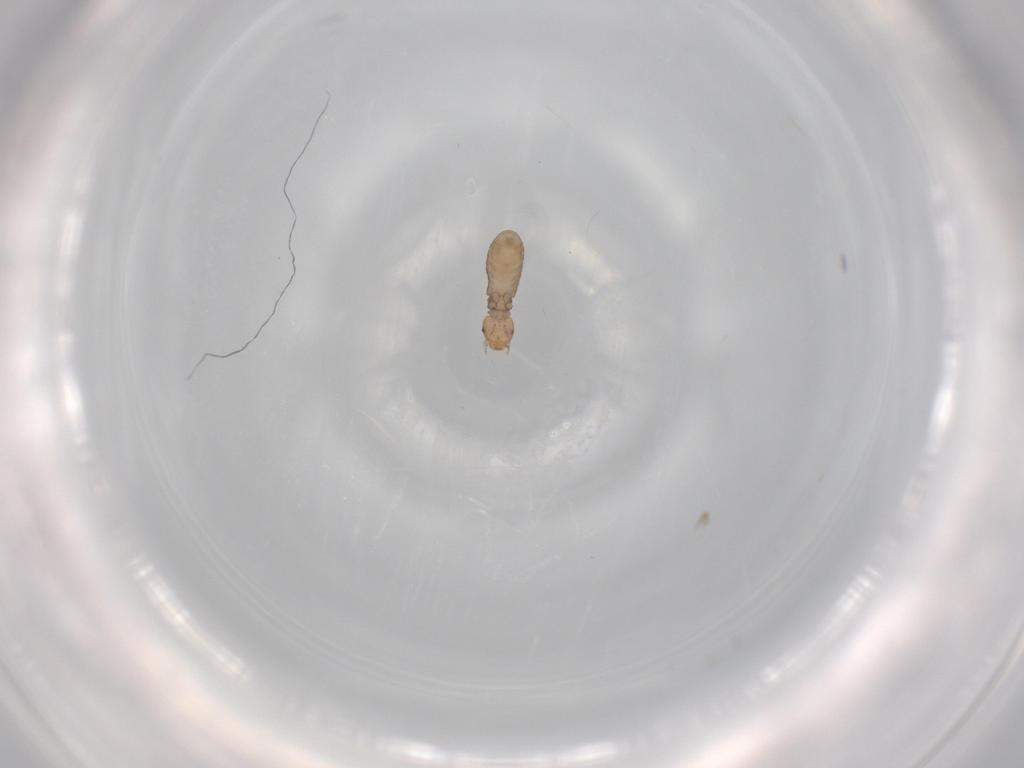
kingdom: Animalia
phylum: Arthropoda
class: Insecta
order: Psocodea
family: Liposcelididae
